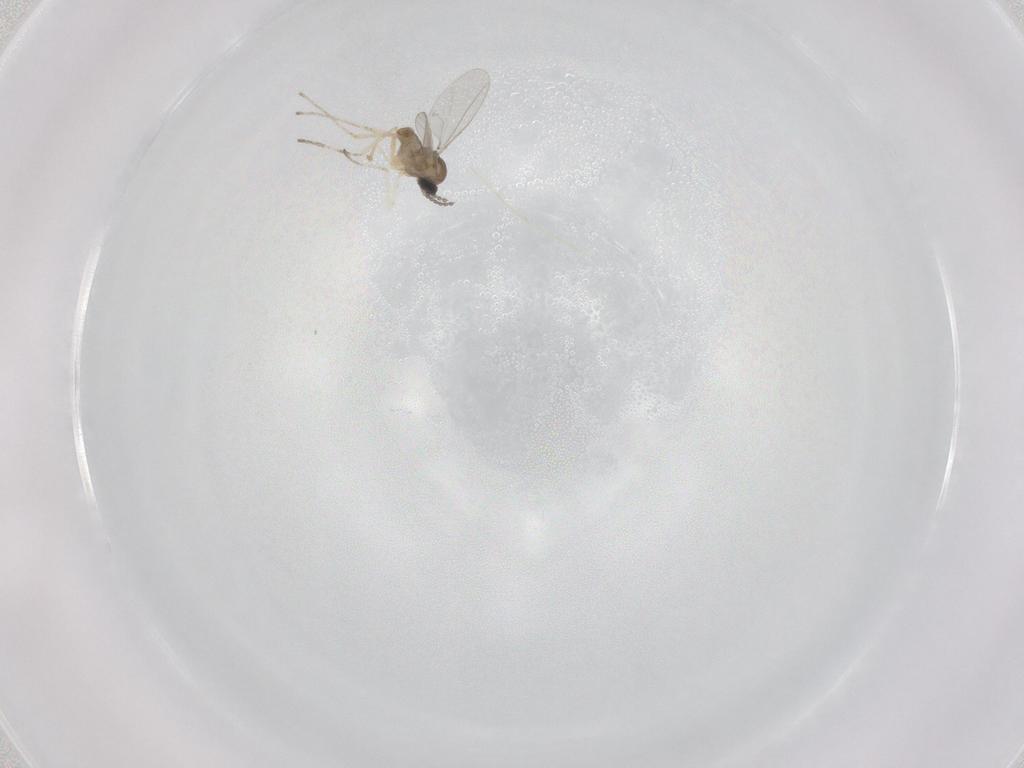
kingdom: Animalia
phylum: Arthropoda
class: Insecta
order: Diptera
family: Cecidomyiidae
